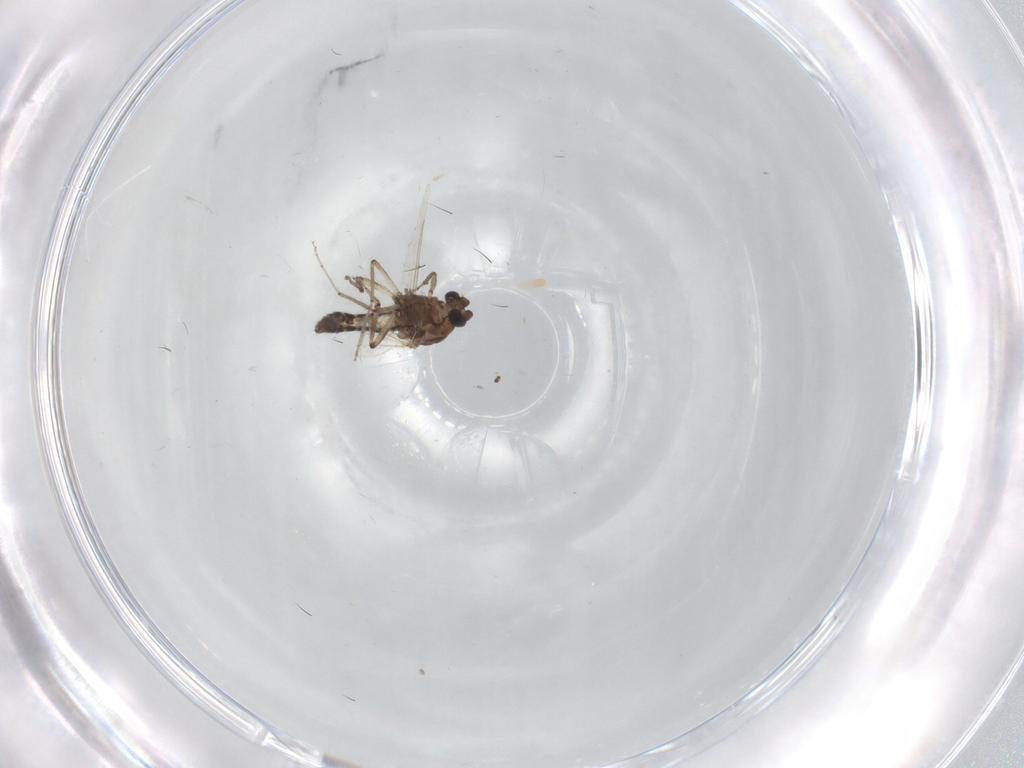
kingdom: Animalia
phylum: Arthropoda
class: Insecta
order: Diptera
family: Ceratopogonidae
